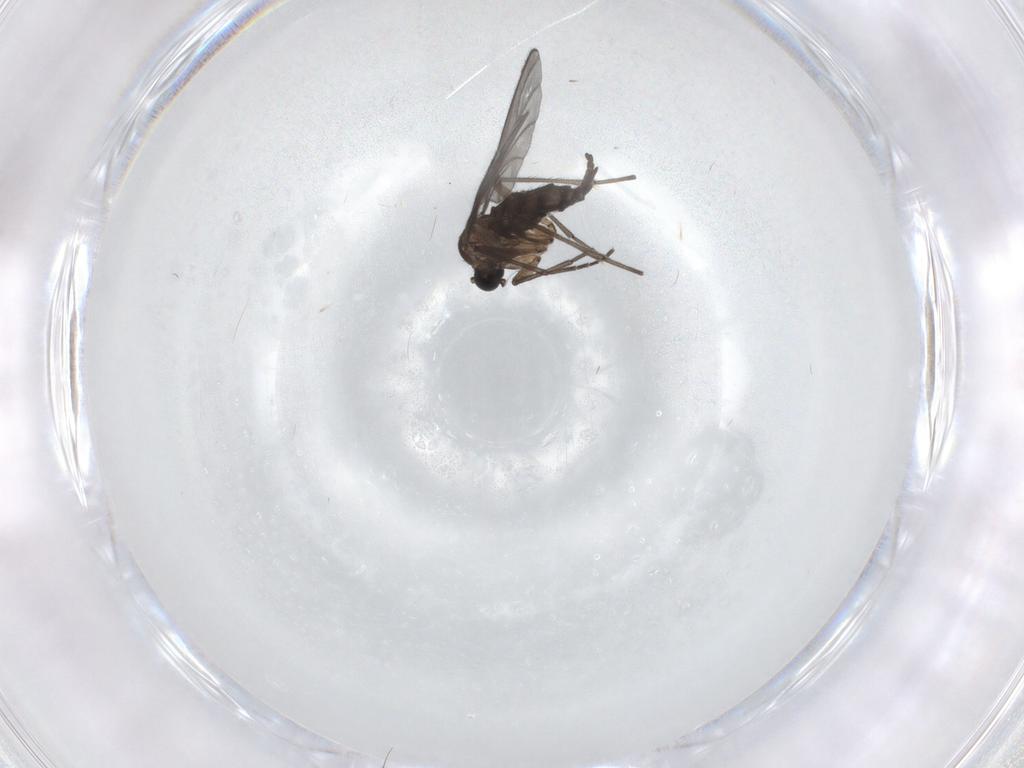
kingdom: Animalia
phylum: Arthropoda
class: Insecta
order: Diptera
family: Sciaridae
